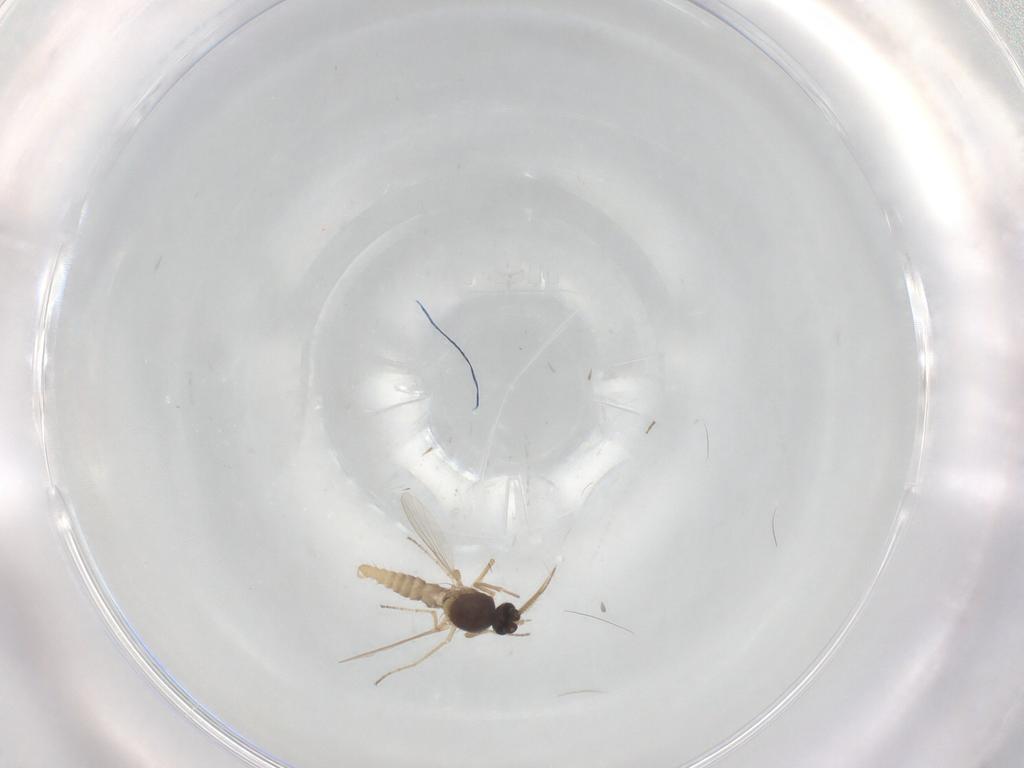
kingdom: Animalia
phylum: Arthropoda
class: Insecta
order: Diptera
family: Ceratopogonidae
